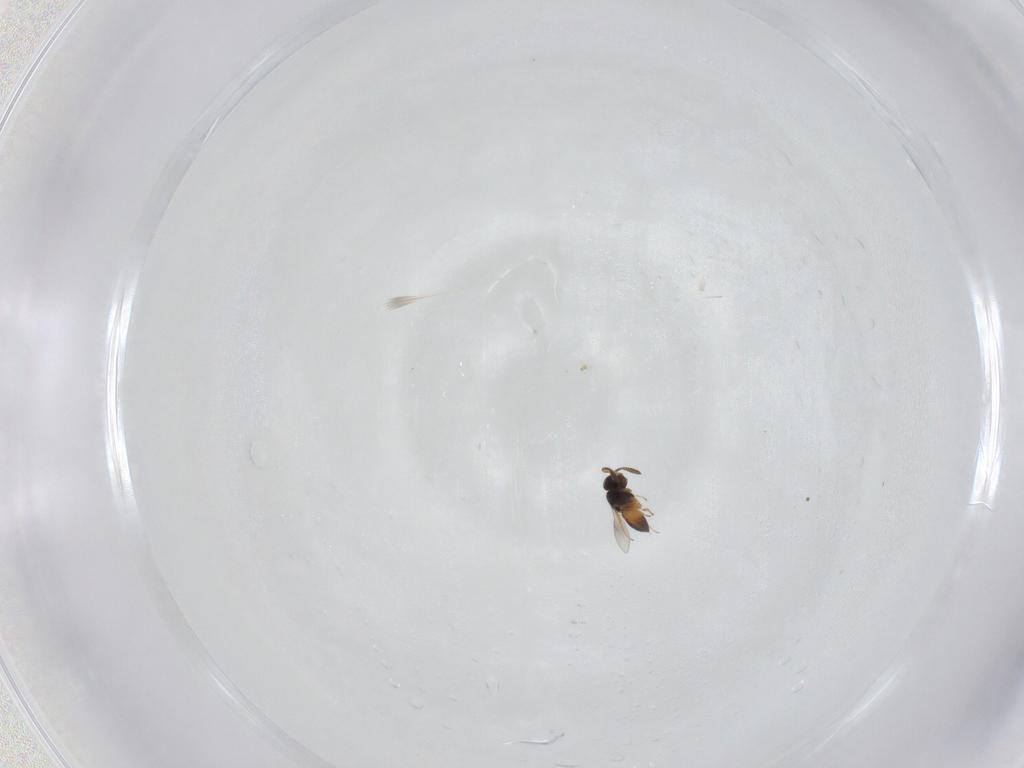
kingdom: Animalia
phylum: Arthropoda
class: Insecta
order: Hymenoptera
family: Scelionidae
